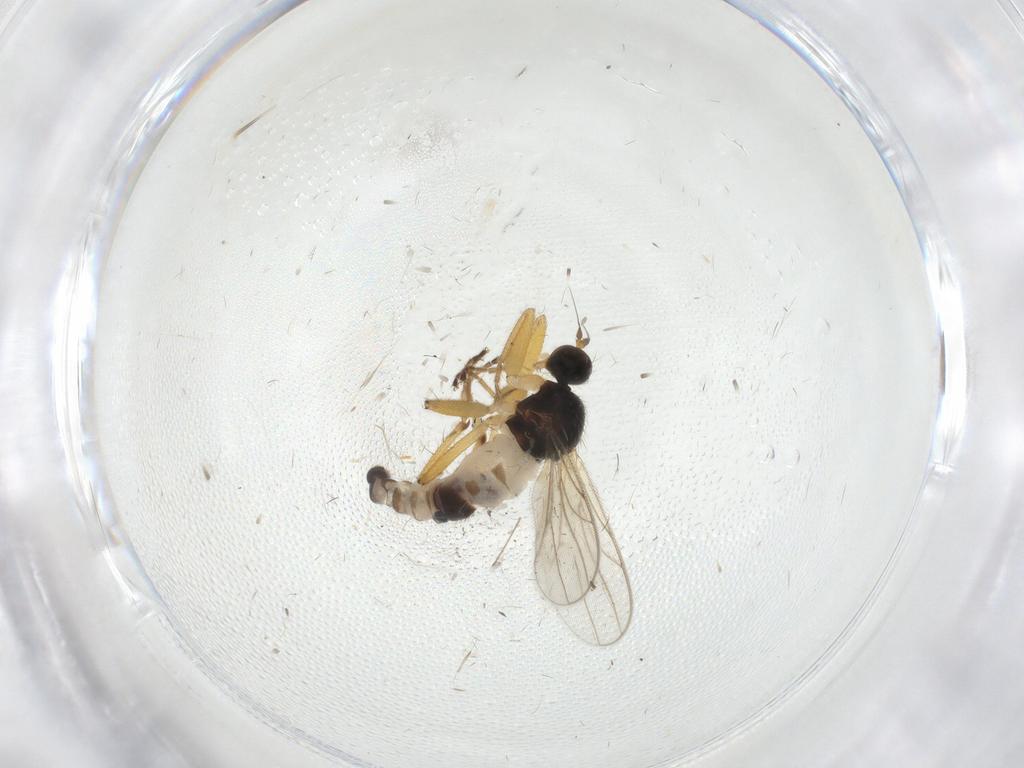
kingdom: Animalia
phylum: Arthropoda
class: Insecta
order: Diptera
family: Hybotidae
